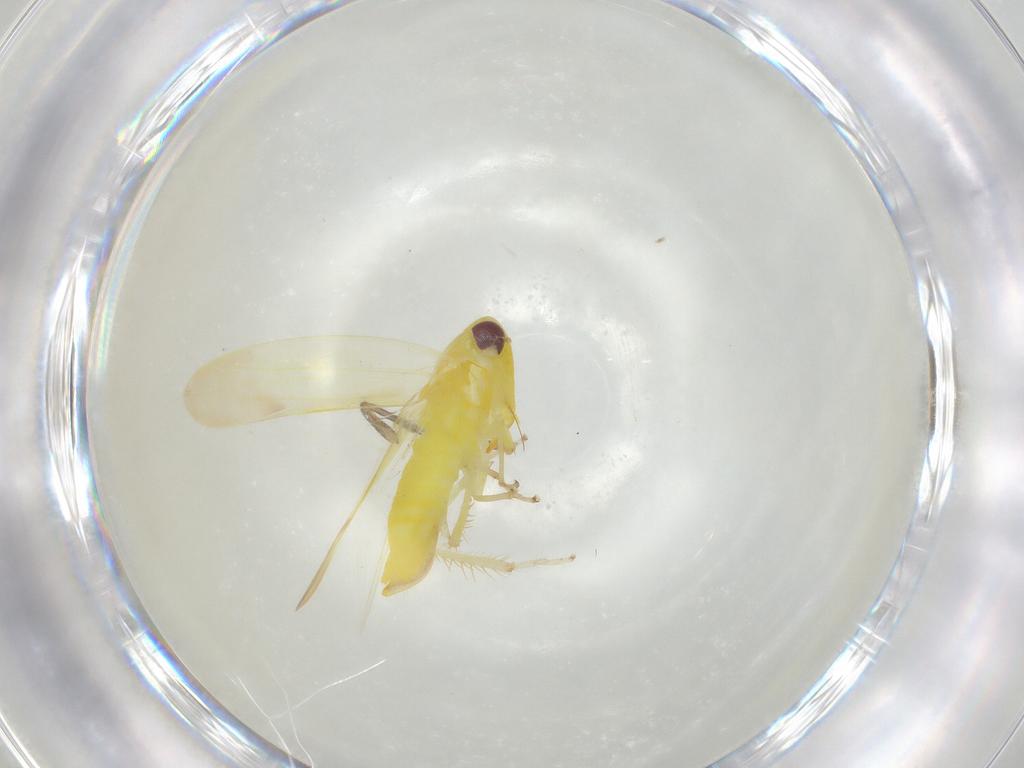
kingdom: Animalia
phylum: Arthropoda
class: Insecta
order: Hemiptera
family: Cicadellidae
